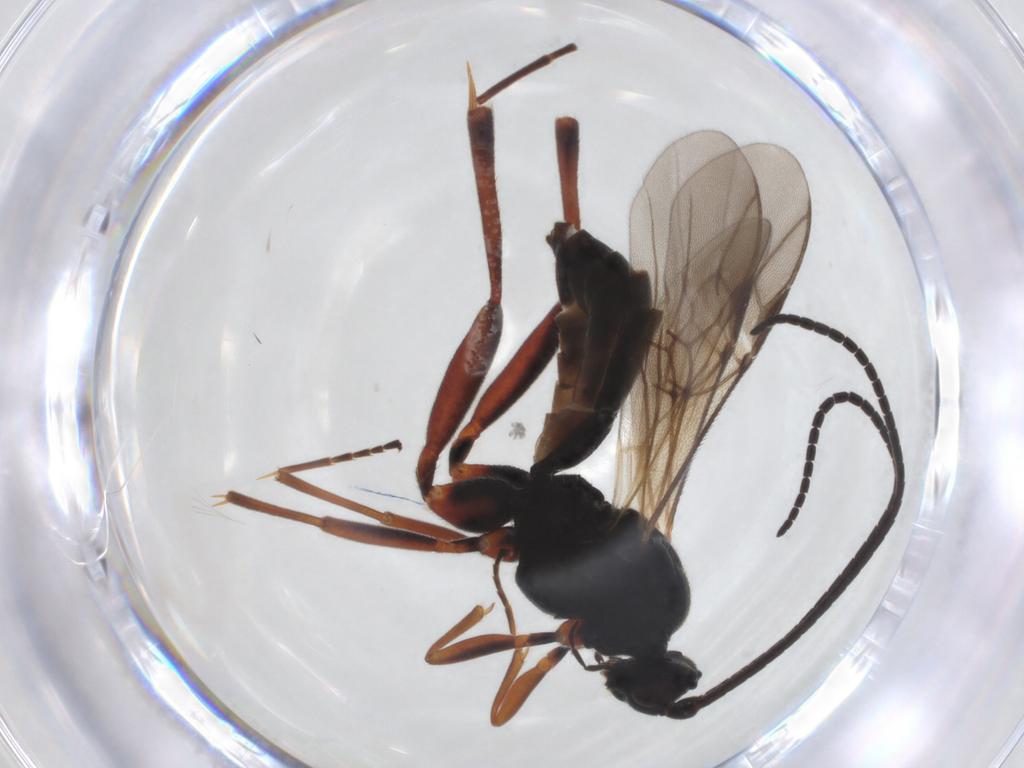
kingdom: Animalia
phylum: Arthropoda
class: Insecta
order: Hymenoptera
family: Braconidae
